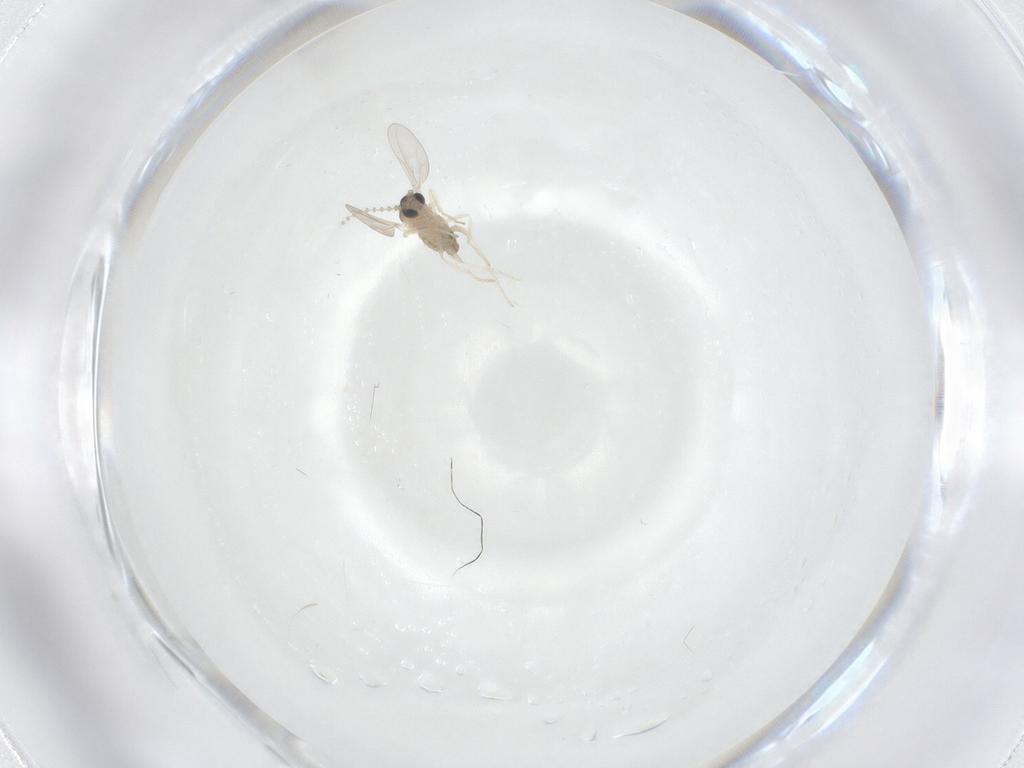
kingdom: Animalia
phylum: Arthropoda
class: Insecta
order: Diptera
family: Cecidomyiidae
